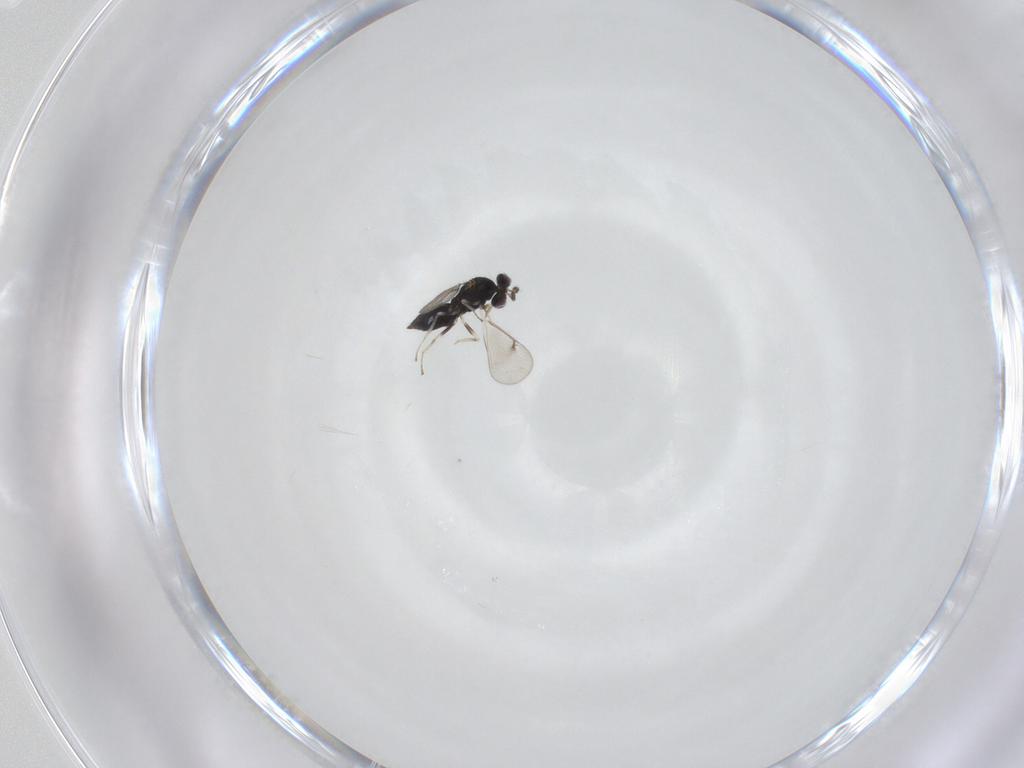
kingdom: Animalia
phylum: Arthropoda
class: Insecta
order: Hymenoptera
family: Eulophidae
